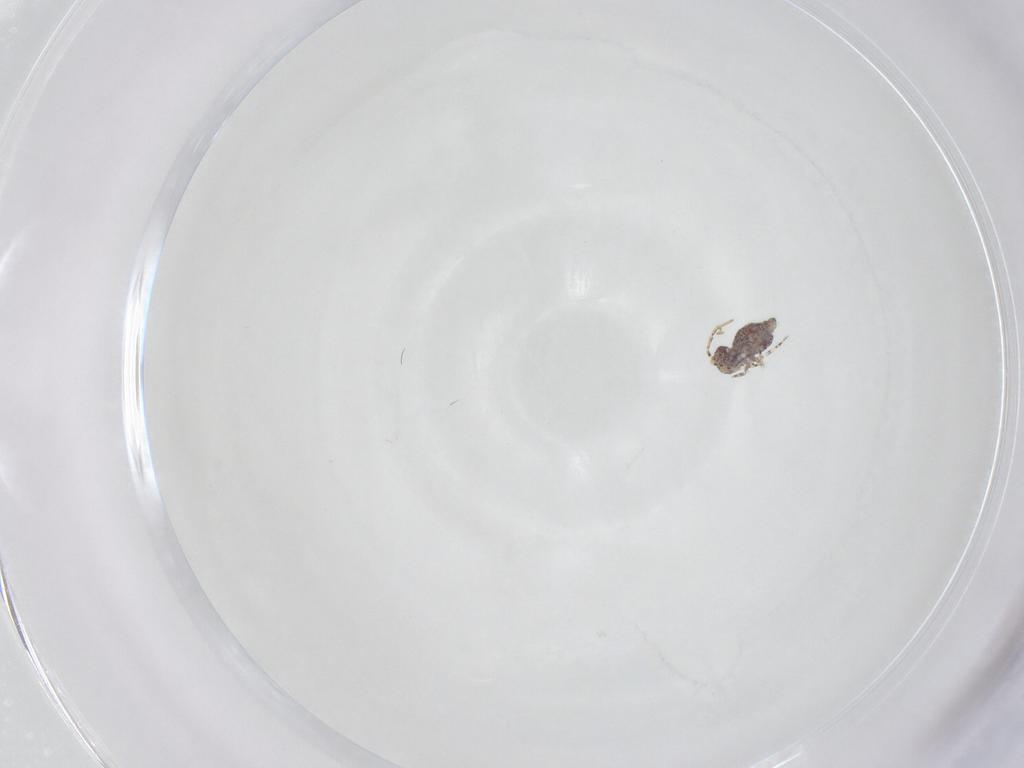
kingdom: Animalia
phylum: Arthropoda
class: Collembola
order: Symphypleona
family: Bourletiellidae
